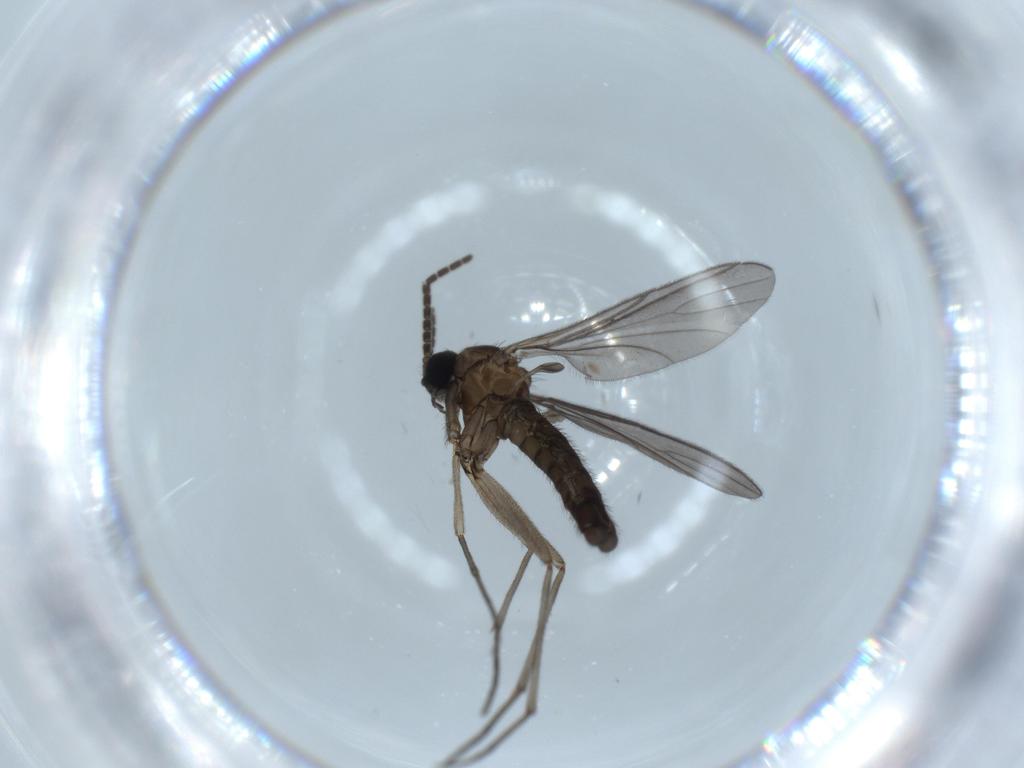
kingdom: Animalia
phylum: Arthropoda
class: Insecta
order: Diptera
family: Sciaridae
